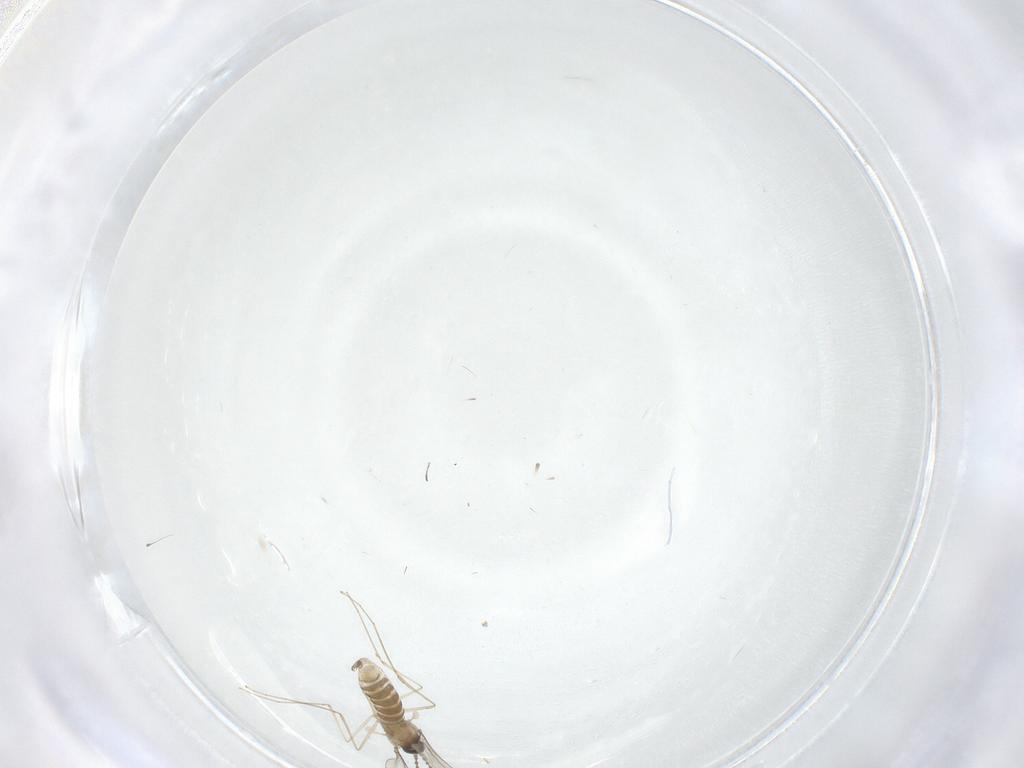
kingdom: Animalia
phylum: Arthropoda
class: Insecta
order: Diptera
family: Cecidomyiidae
